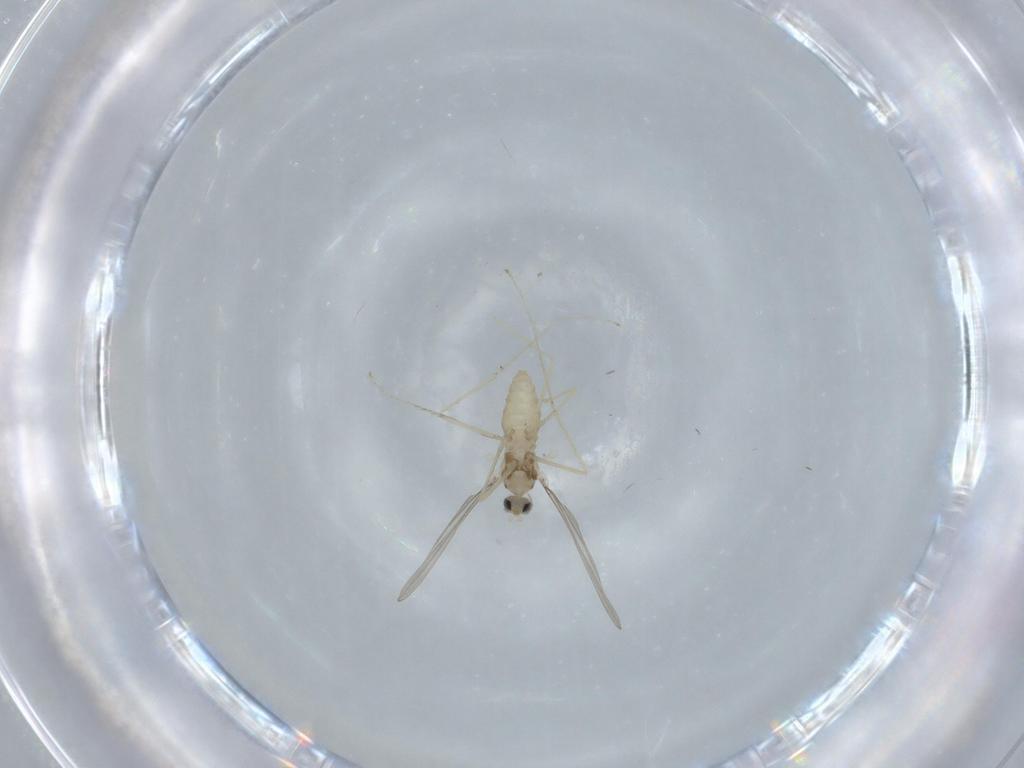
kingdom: Animalia
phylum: Arthropoda
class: Insecta
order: Diptera
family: Cecidomyiidae
